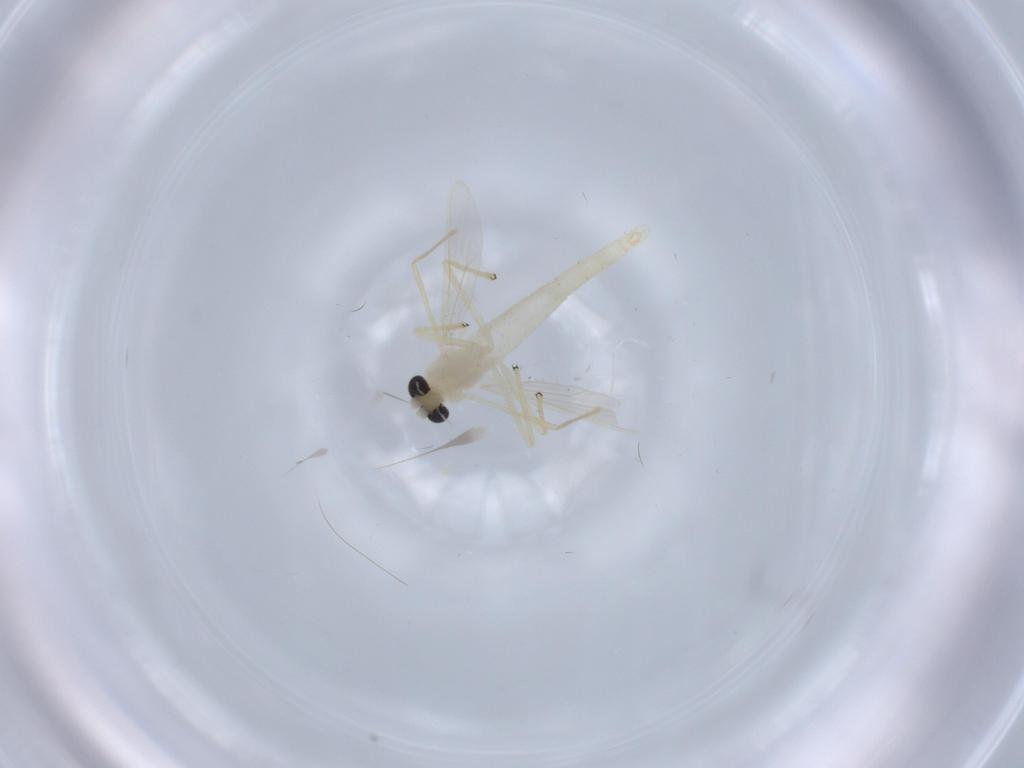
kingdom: Animalia
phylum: Arthropoda
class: Insecta
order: Diptera
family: Chironomidae
